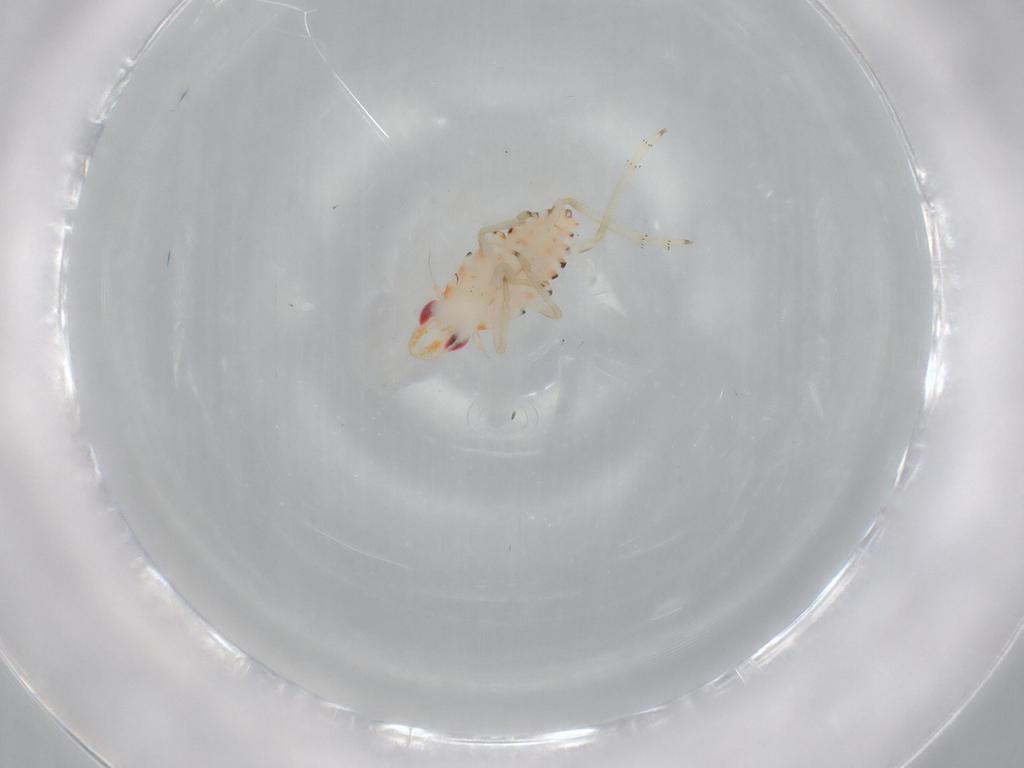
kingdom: Animalia
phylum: Arthropoda
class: Insecta
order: Hemiptera
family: Tropiduchidae
